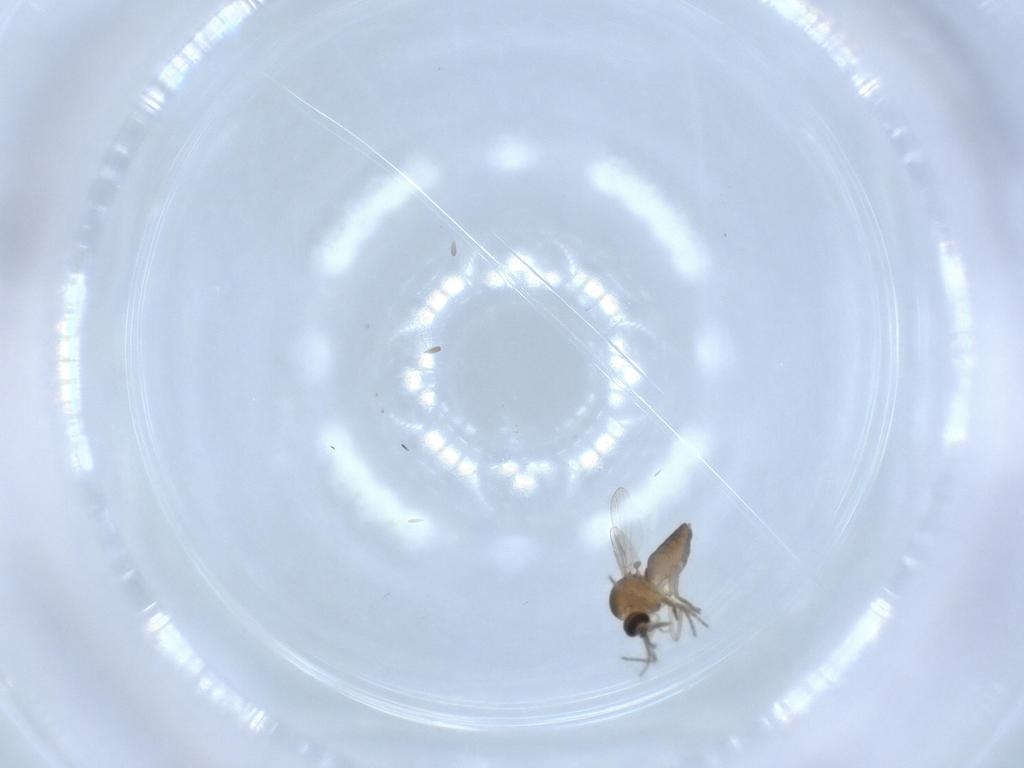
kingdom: Animalia
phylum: Arthropoda
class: Insecta
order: Diptera
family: Ceratopogonidae
